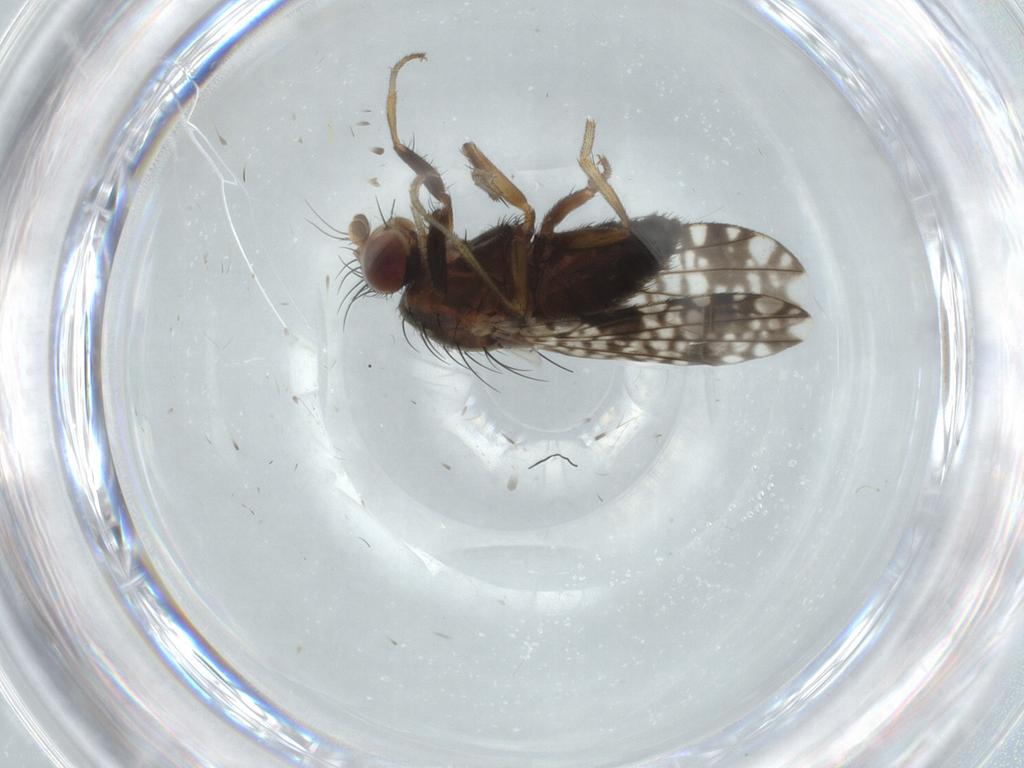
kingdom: Animalia
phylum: Arthropoda
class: Insecta
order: Diptera
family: Tephritidae
